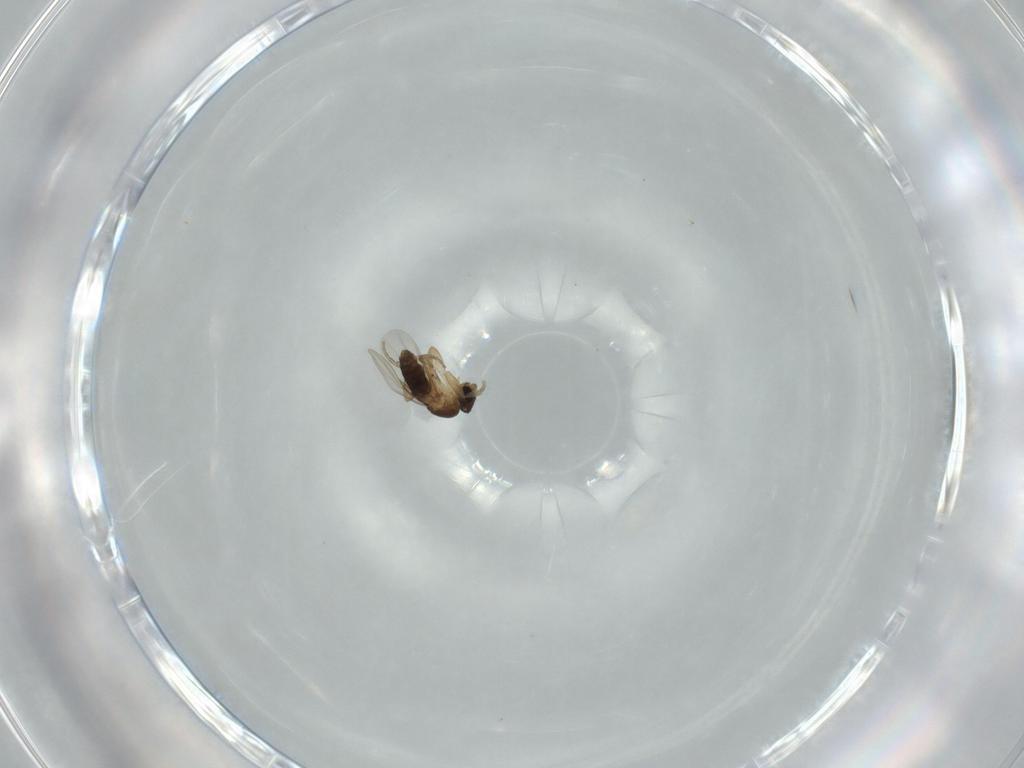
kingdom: Animalia
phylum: Arthropoda
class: Insecta
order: Diptera
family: Phoridae
